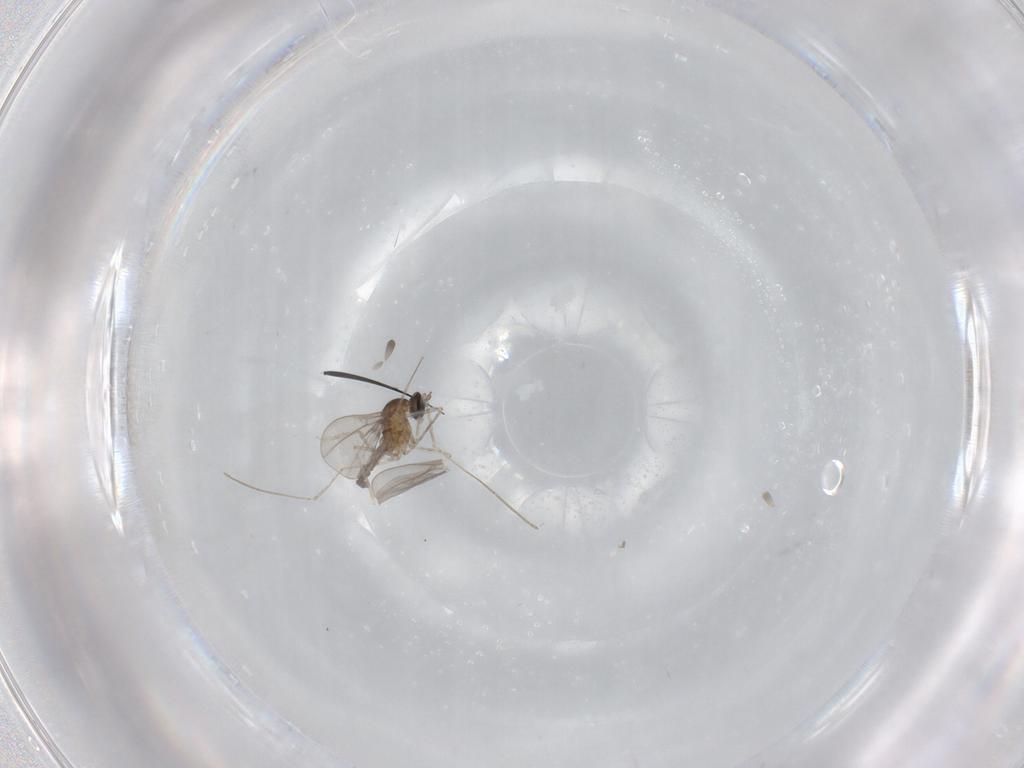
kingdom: Animalia
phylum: Arthropoda
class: Insecta
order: Diptera
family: Cecidomyiidae
